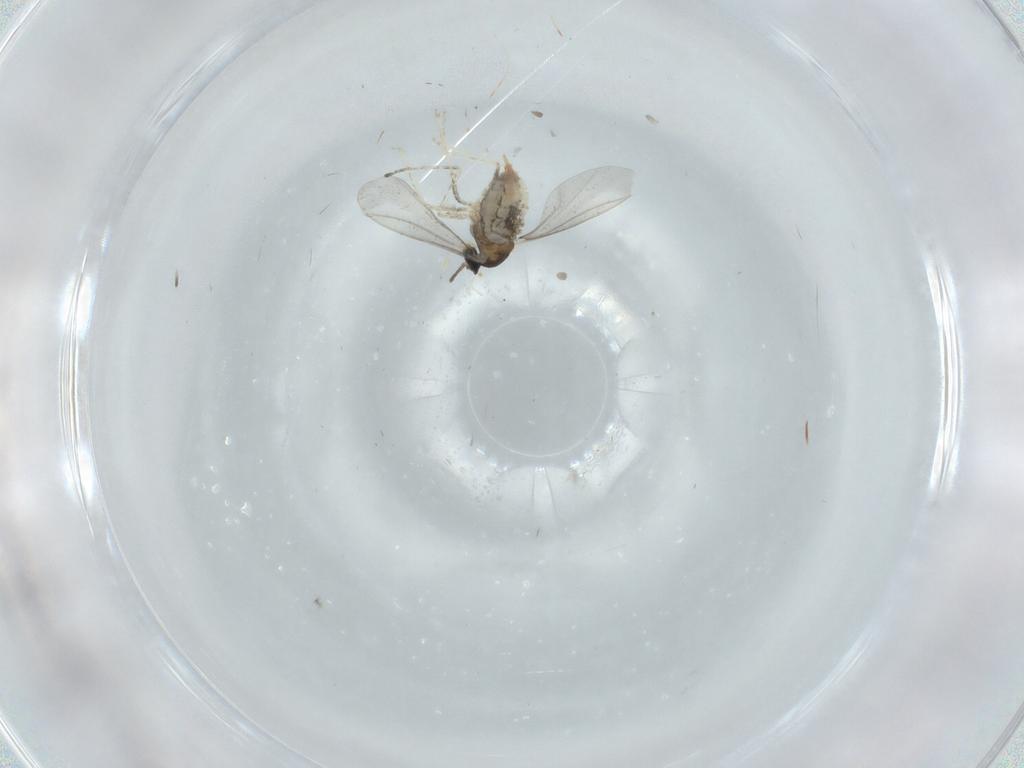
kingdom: Animalia
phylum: Arthropoda
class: Insecta
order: Diptera
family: Cecidomyiidae
